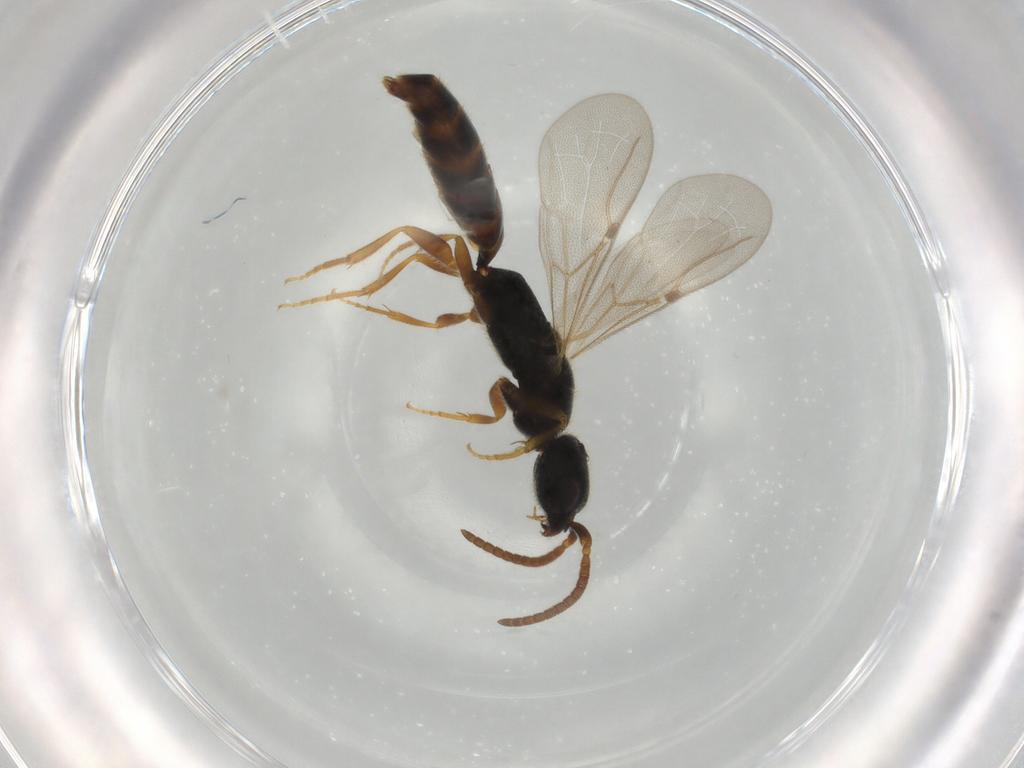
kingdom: Animalia
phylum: Arthropoda
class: Insecta
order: Hymenoptera
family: Bethylidae
